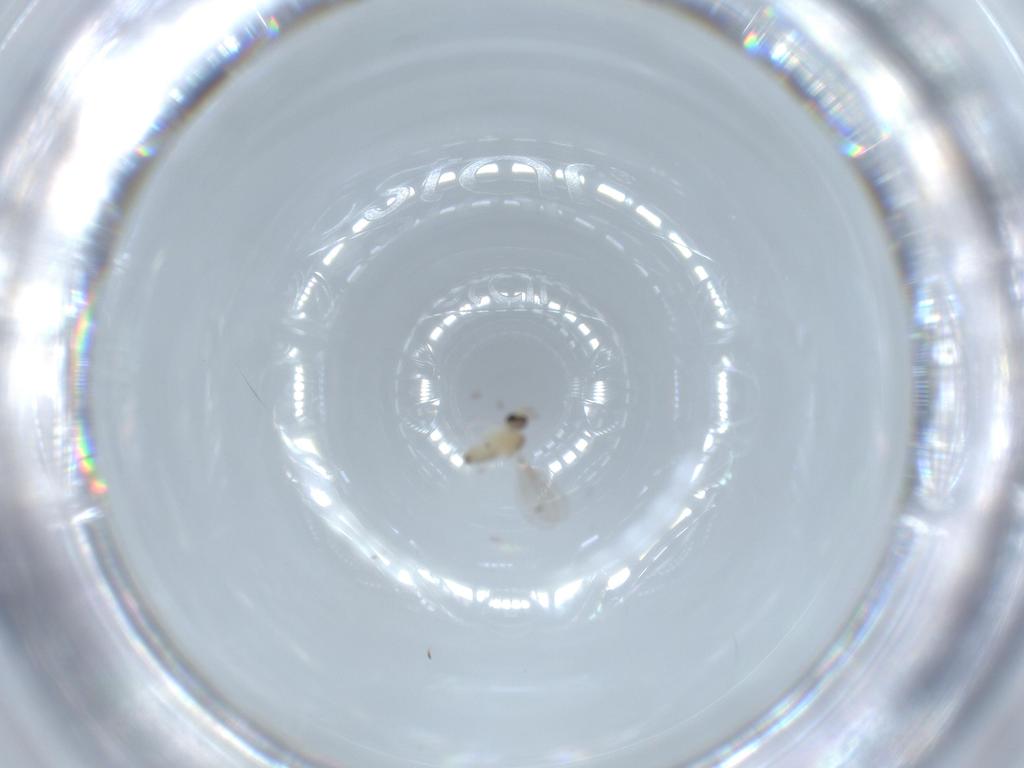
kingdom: Animalia
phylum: Arthropoda
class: Insecta
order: Diptera
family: Cecidomyiidae
